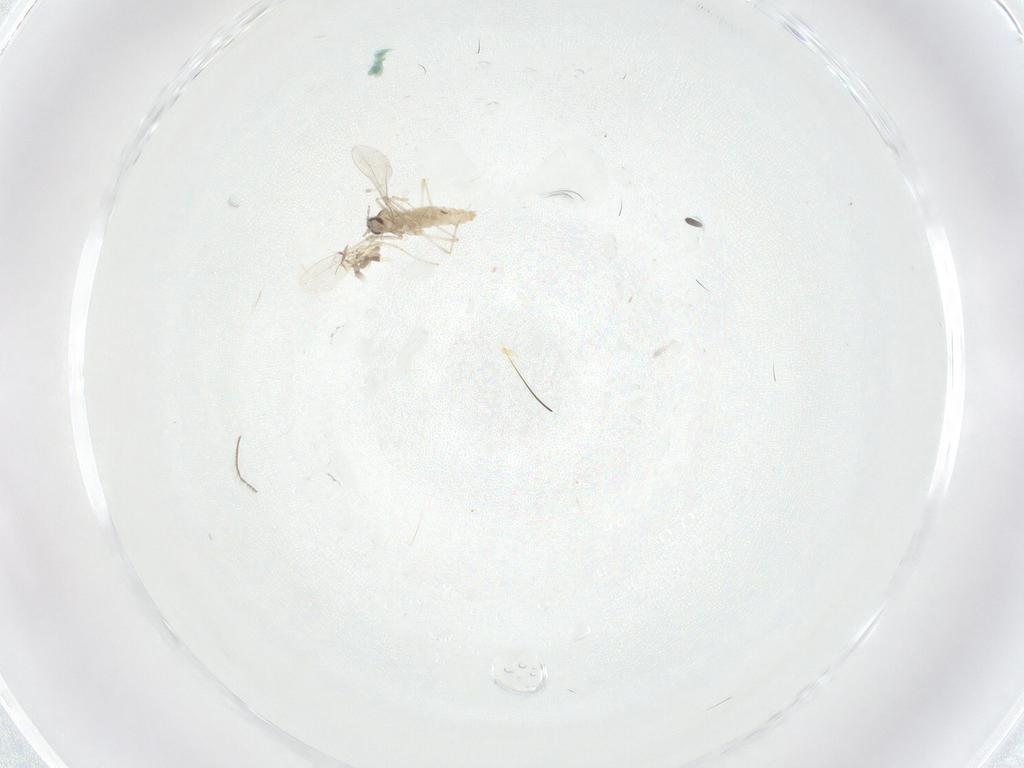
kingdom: Animalia
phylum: Arthropoda
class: Insecta
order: Diptera
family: Cecidomyiidae
